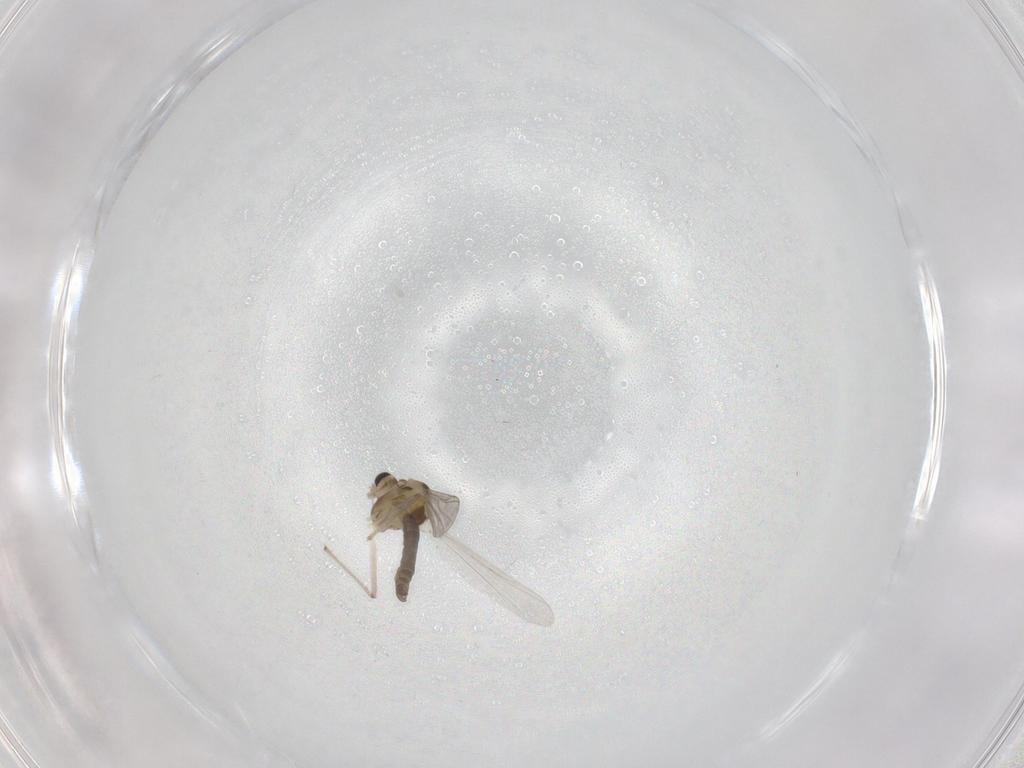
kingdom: Animalia
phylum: Arthropoda
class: Insecta
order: Diptera
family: Chironomidae
